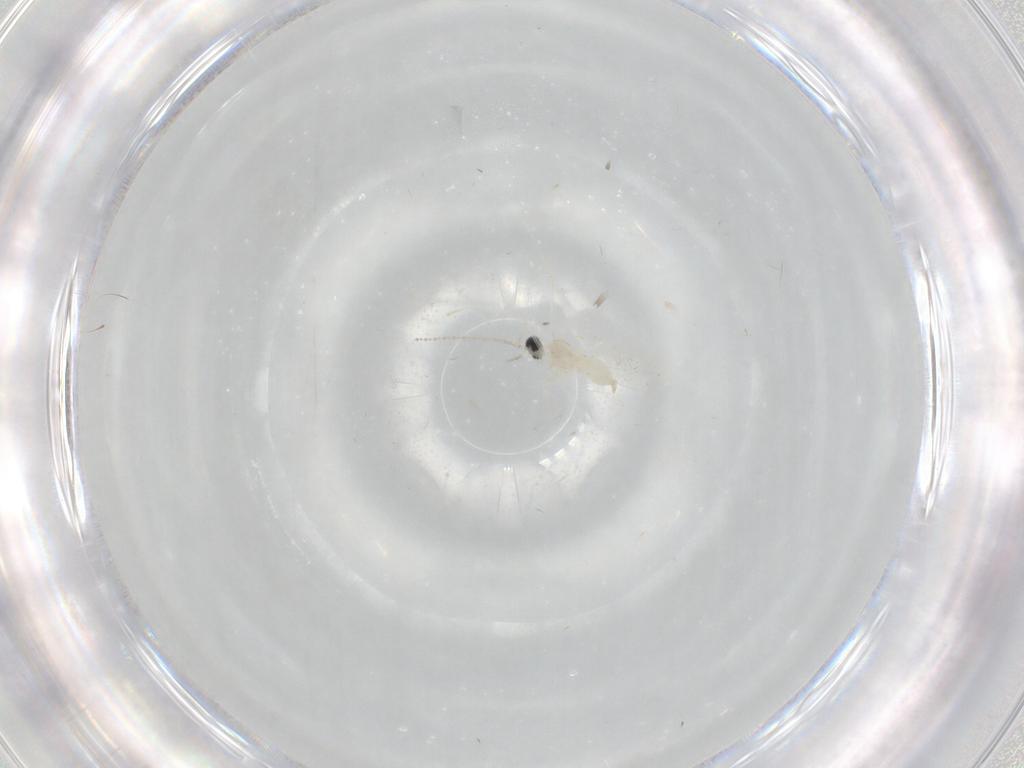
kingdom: Animalia
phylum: Arthropoda
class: Insecta
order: Diptera
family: Cecidomyiidae
